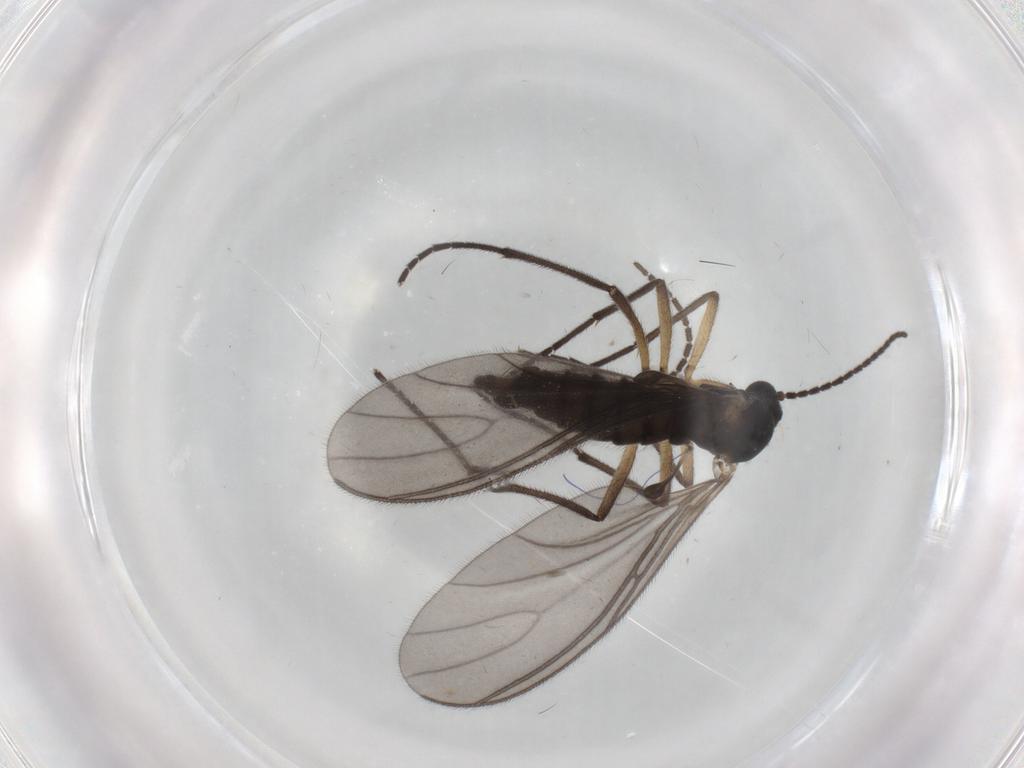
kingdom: Animalia
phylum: Arthropoda
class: Insecta
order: Diptera
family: Sciaridae
